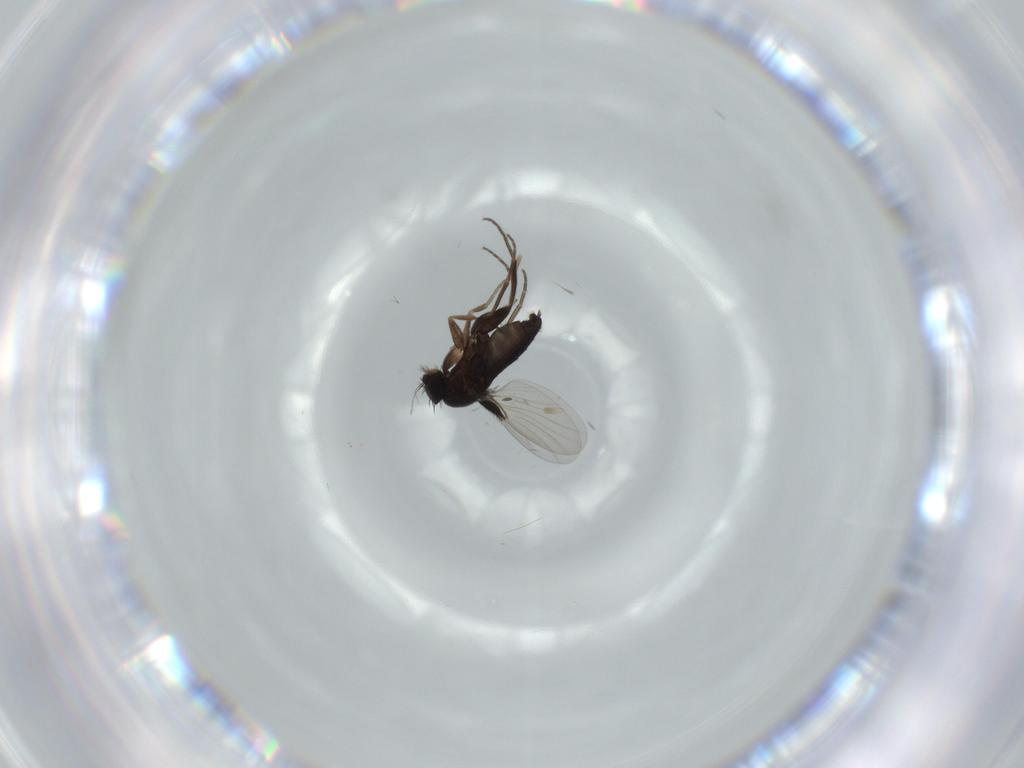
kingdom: Animalia
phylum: Arthropoda
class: Insecta
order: Diptera
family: Phoridae
